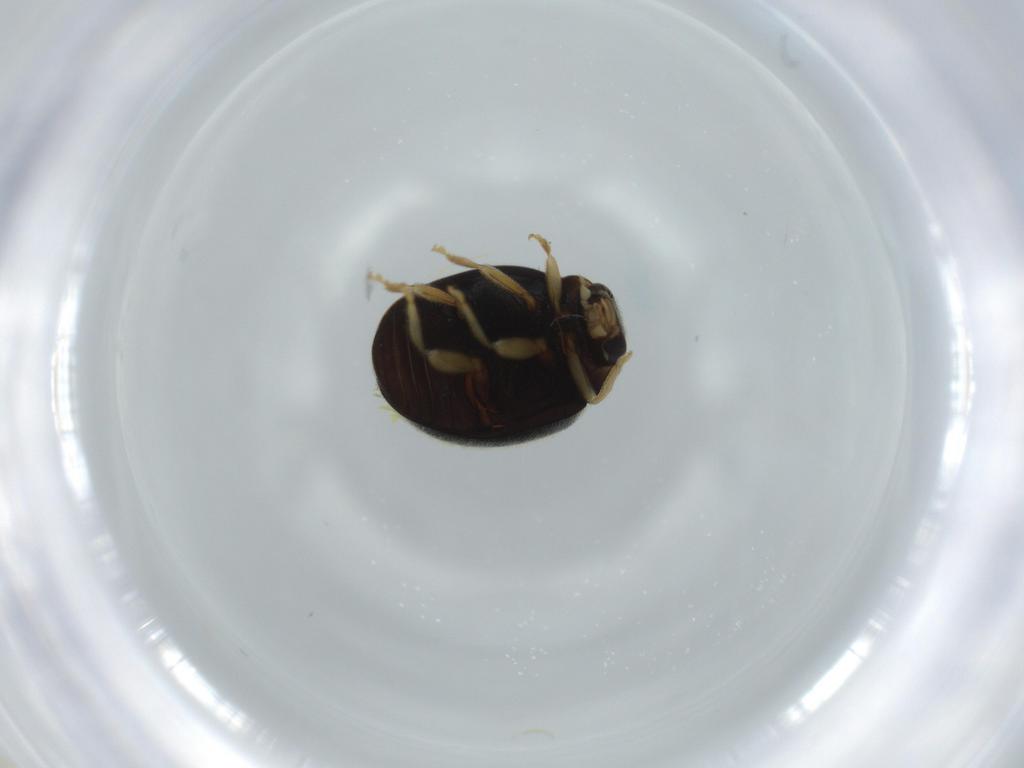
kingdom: Animalia
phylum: Arthropoda
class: Insecta
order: Coleoptera
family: Coccinellidae
